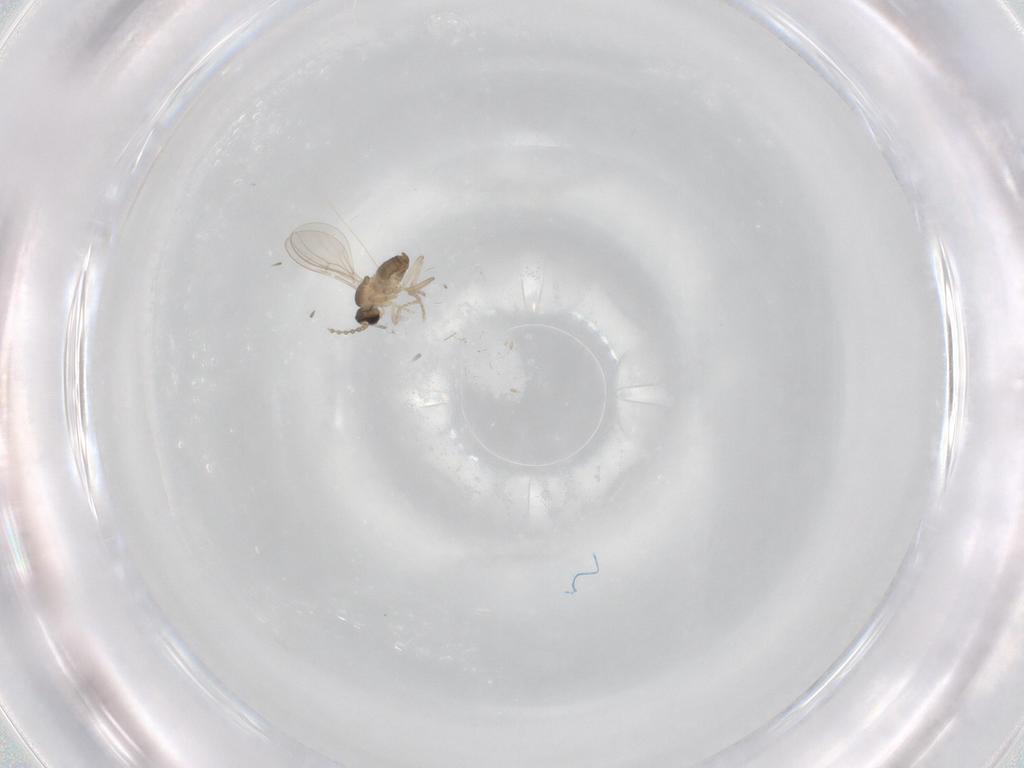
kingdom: Animalia
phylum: Arthropoda
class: Insecta
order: Diptera
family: Cecidomyiidae
